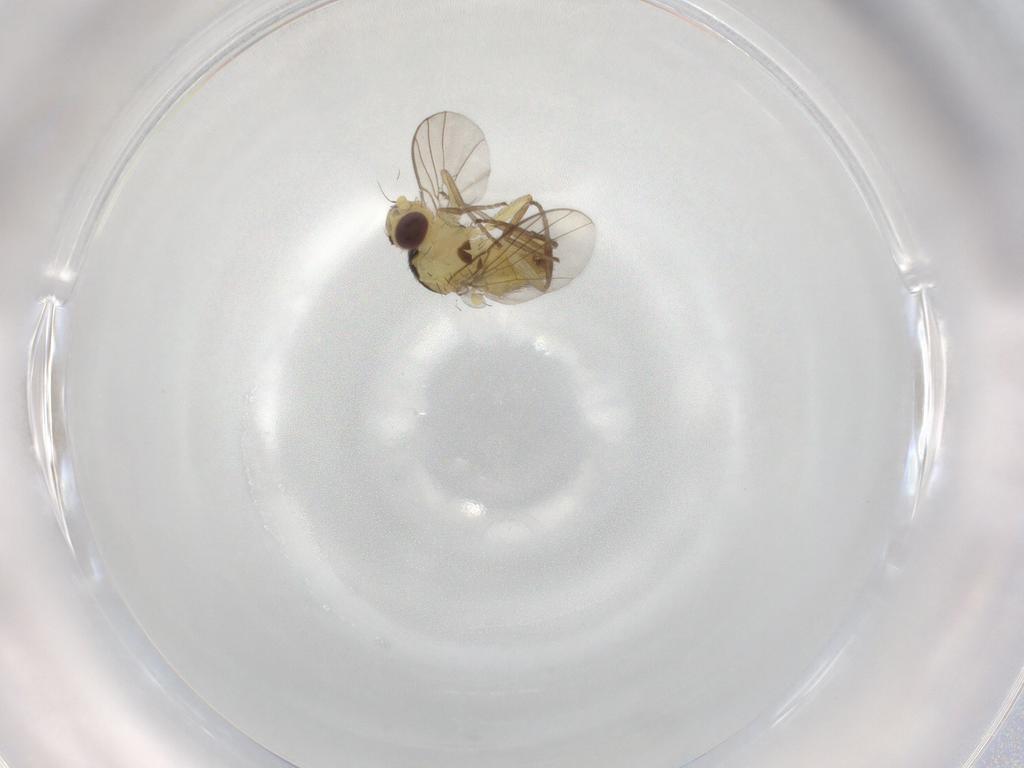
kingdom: Animalia
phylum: Arthropoda
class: Insecta
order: Diptera
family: Agromyzidae
